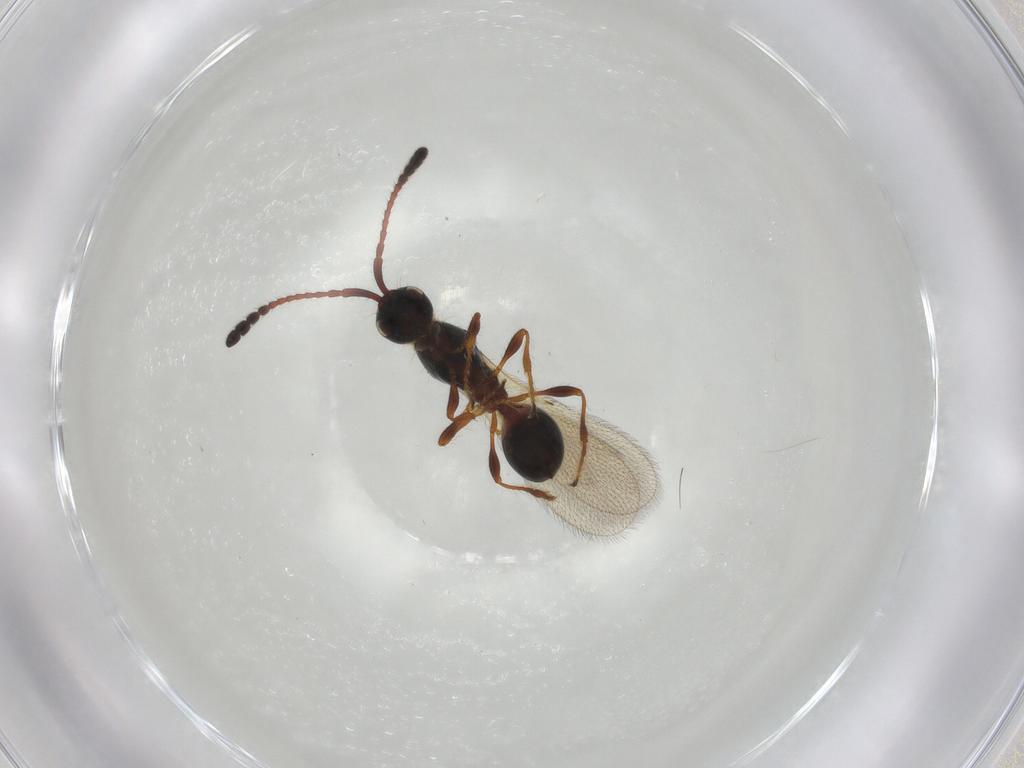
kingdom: Animalia
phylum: Arthropoda
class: Insecta
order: Hymenoptera
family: Diapriidae
